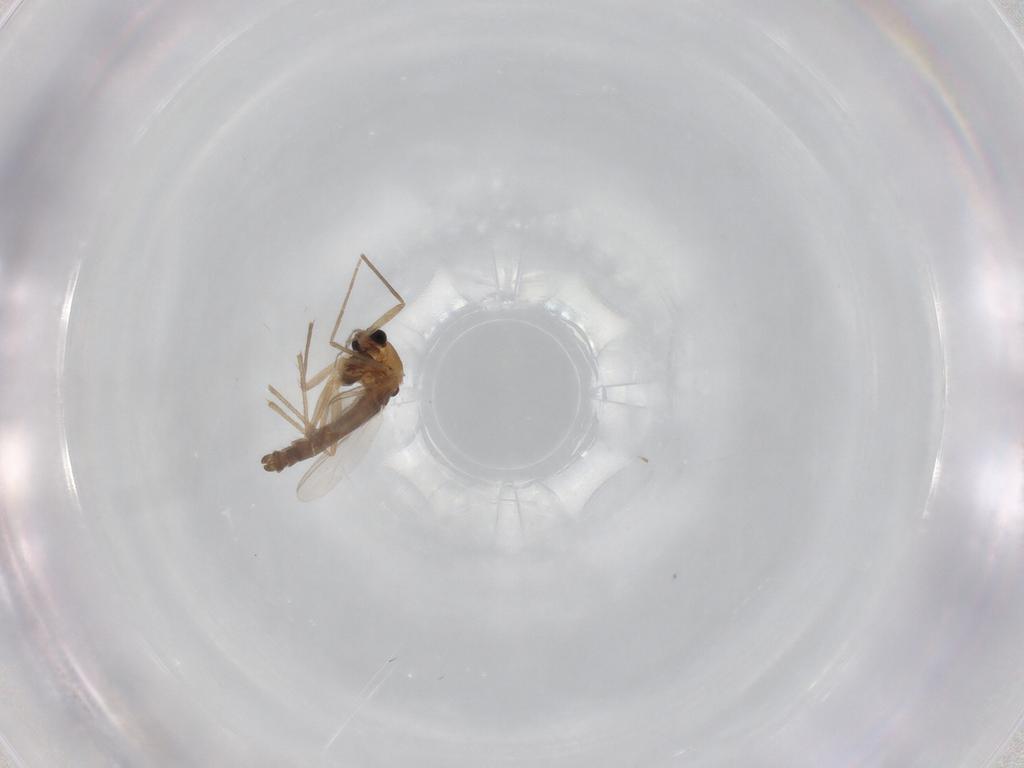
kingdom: Animalia
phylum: Arthropoda
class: Insecta
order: Diptera
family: Chironomidae
